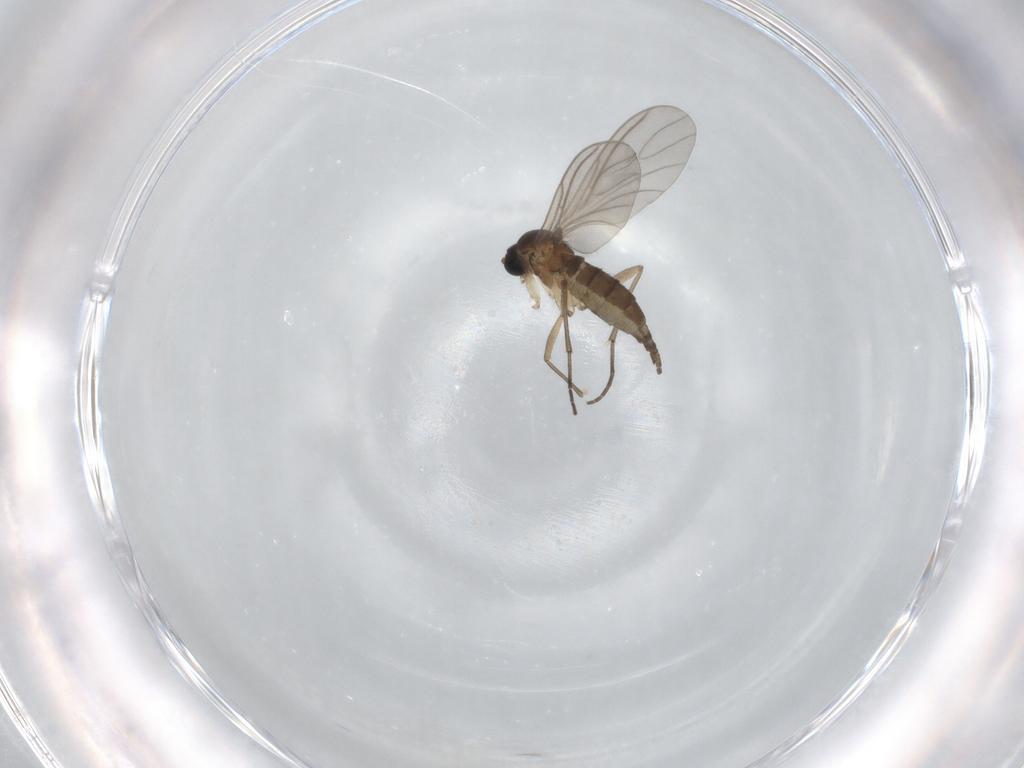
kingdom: Animalia
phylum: Arthropoda
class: Insecta
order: Diptera
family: Sciaridae
